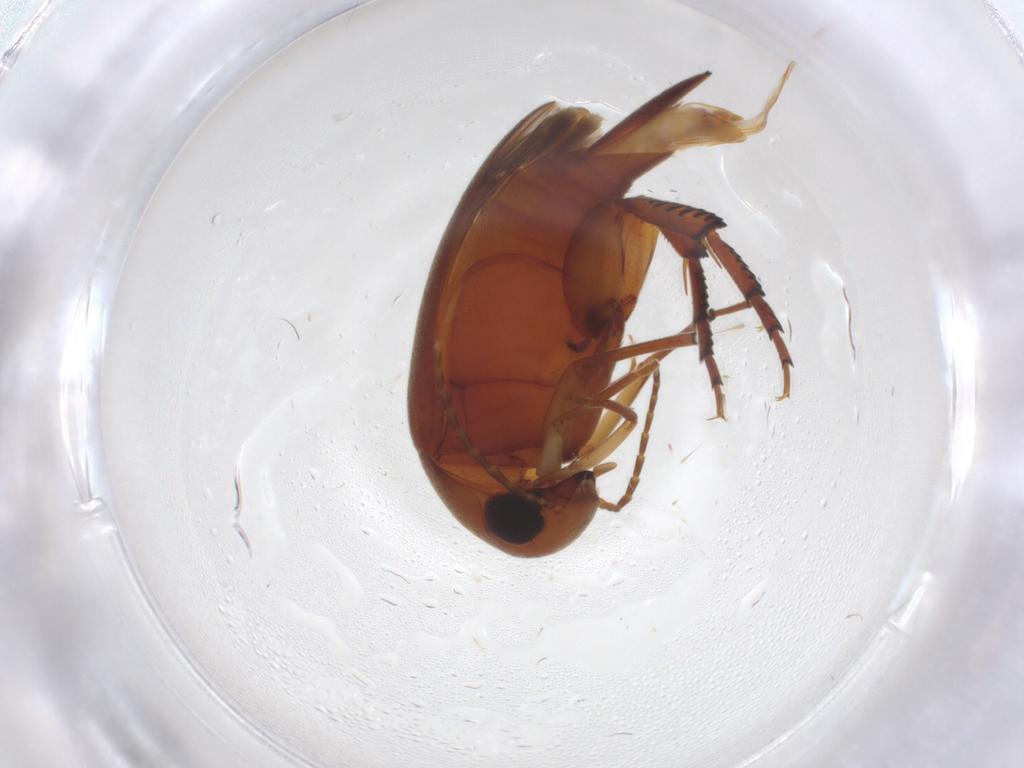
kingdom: Animalia
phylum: Arthropoda
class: Insecta
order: Coleoptera
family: Mordellidae
